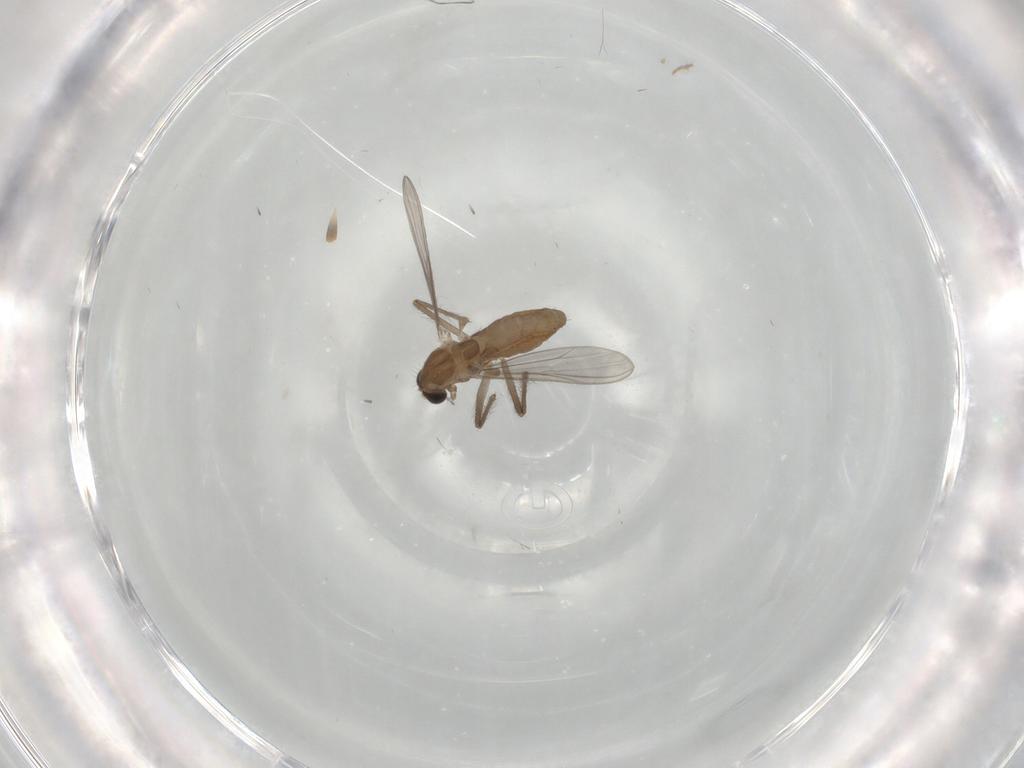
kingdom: Animalia
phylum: Arthropoda
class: Insecta
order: Diptera
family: Chironomidae
